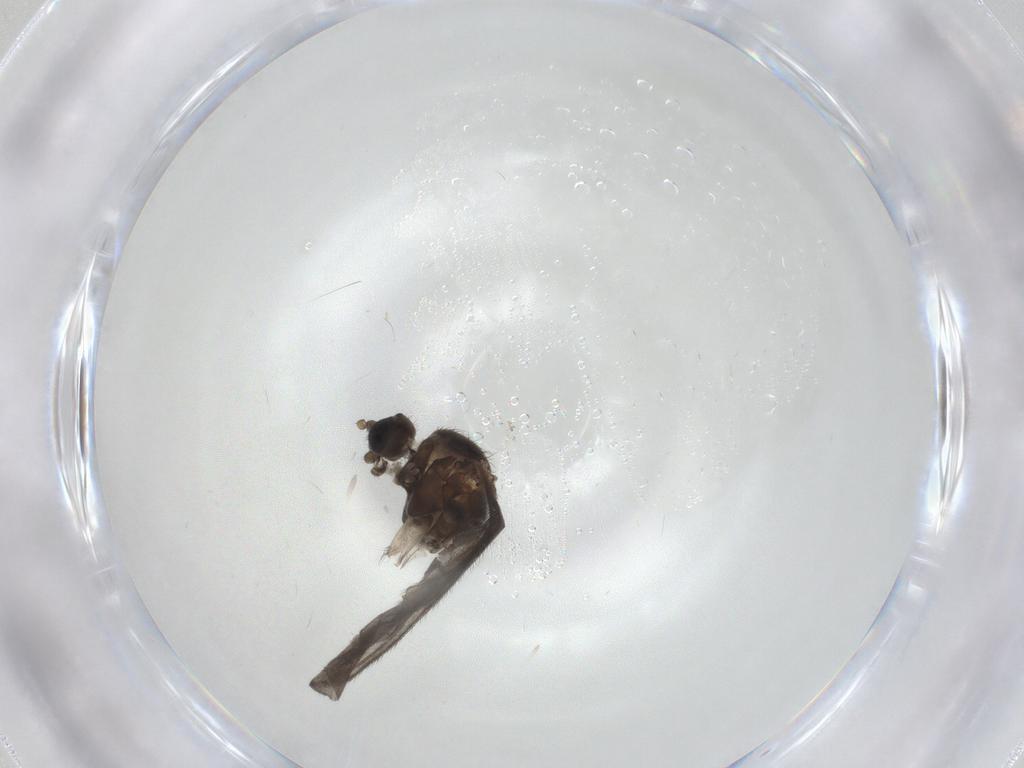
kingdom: Animalia
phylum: Arthropoda
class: Insecta
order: Diptera
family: Sciaridae
